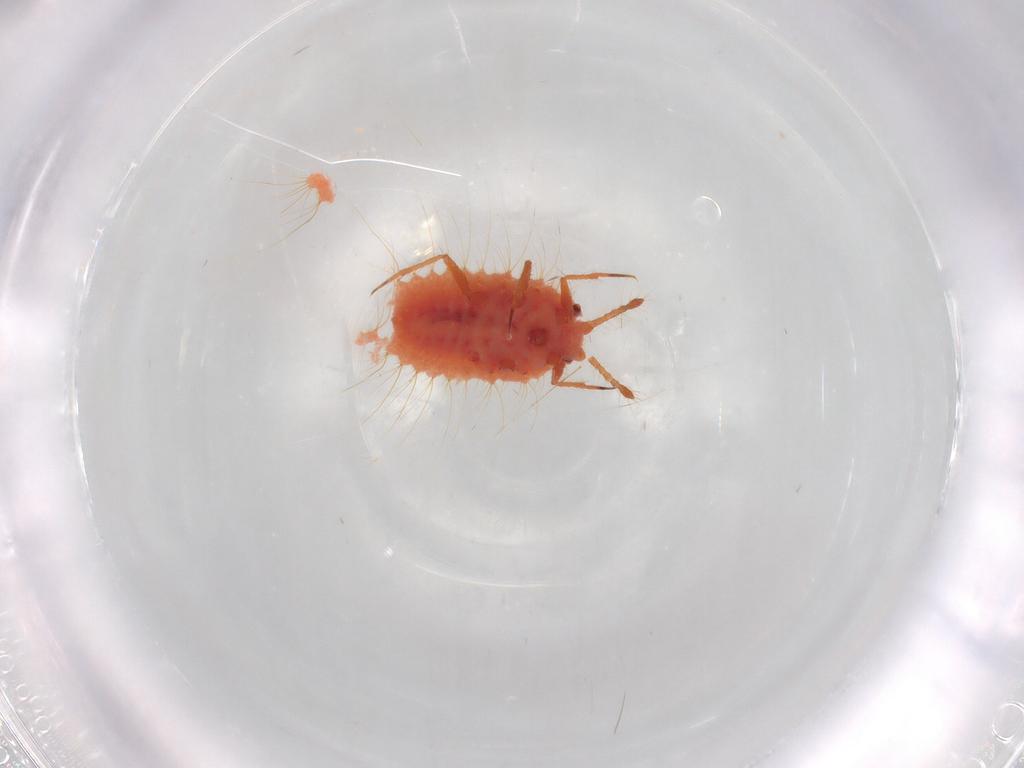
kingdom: Animalia
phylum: Arthropoda
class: Insecta
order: Hemiptera
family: Coccoidea_incertae_sedis
